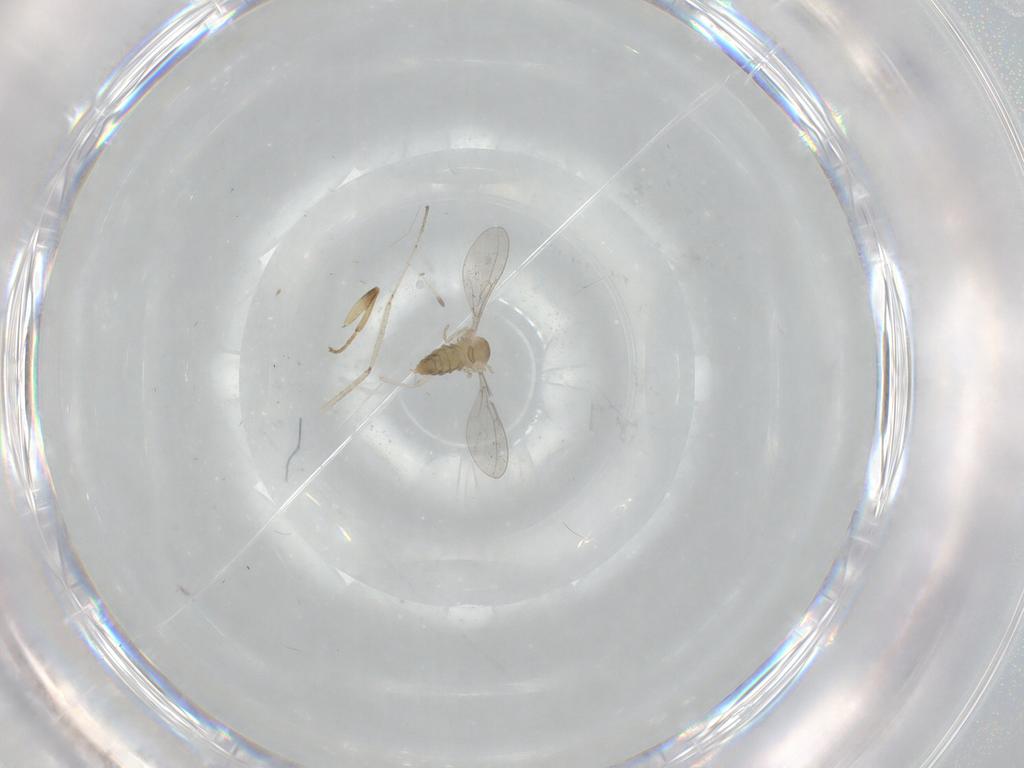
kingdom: Animalia
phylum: Arthropoda
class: Insecta
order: Diptera
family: Cecidomyiidae
